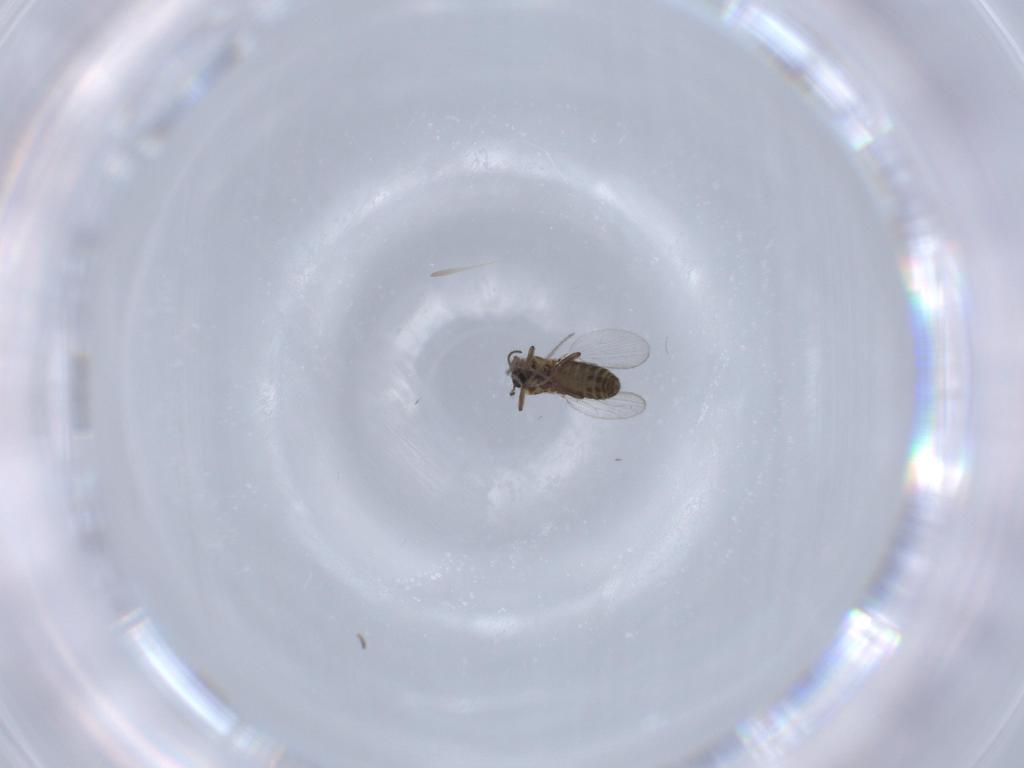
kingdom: Animalia
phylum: Arthropoda
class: Insecta
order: Diptera
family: Ceratopogonidae
